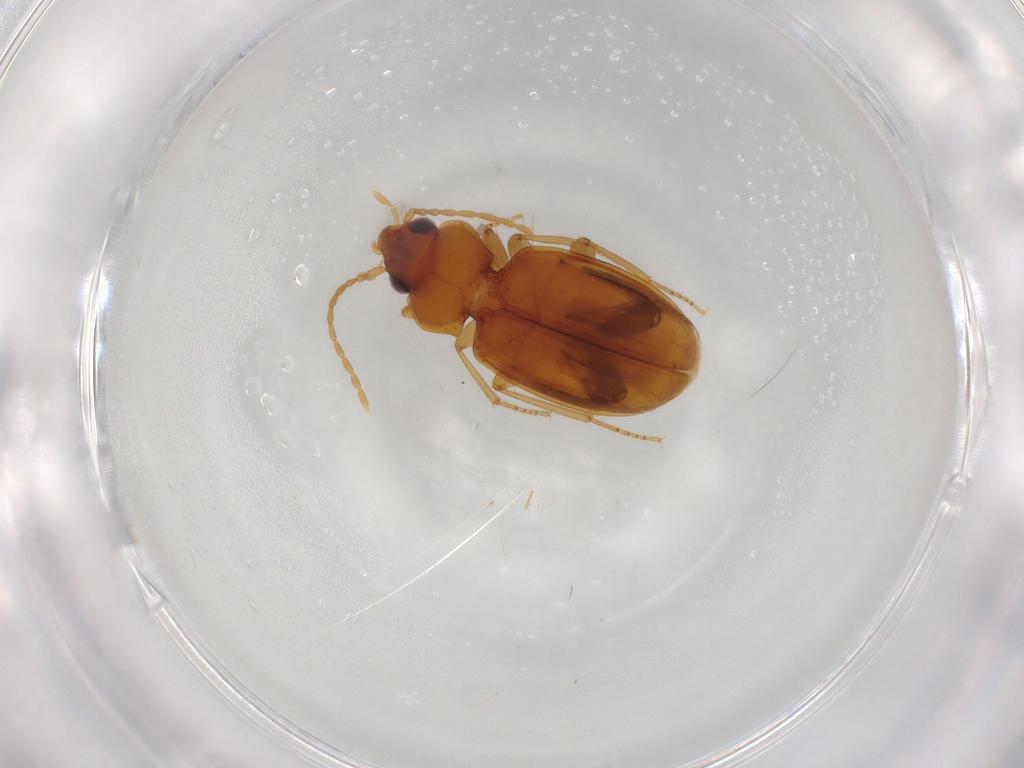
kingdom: Animalia
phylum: Arthropoda
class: Insecta
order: Coleoptera
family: Carabidae
